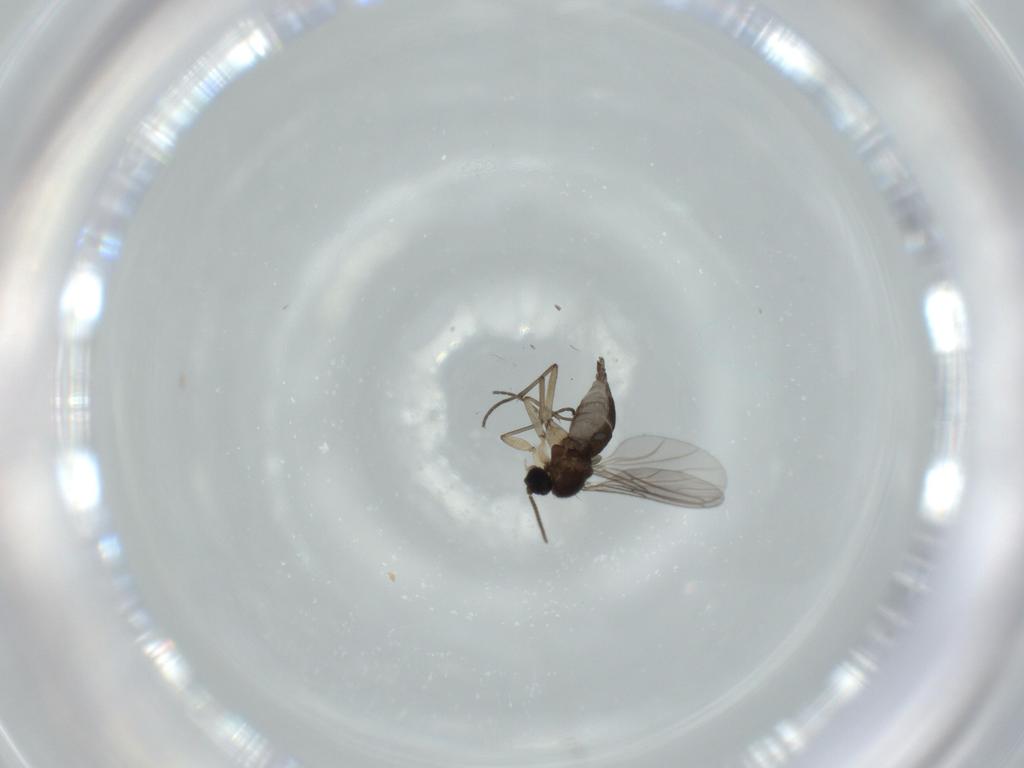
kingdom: Animalia
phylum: Arthropoda
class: Insecta
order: Diptera
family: Sciaridae
